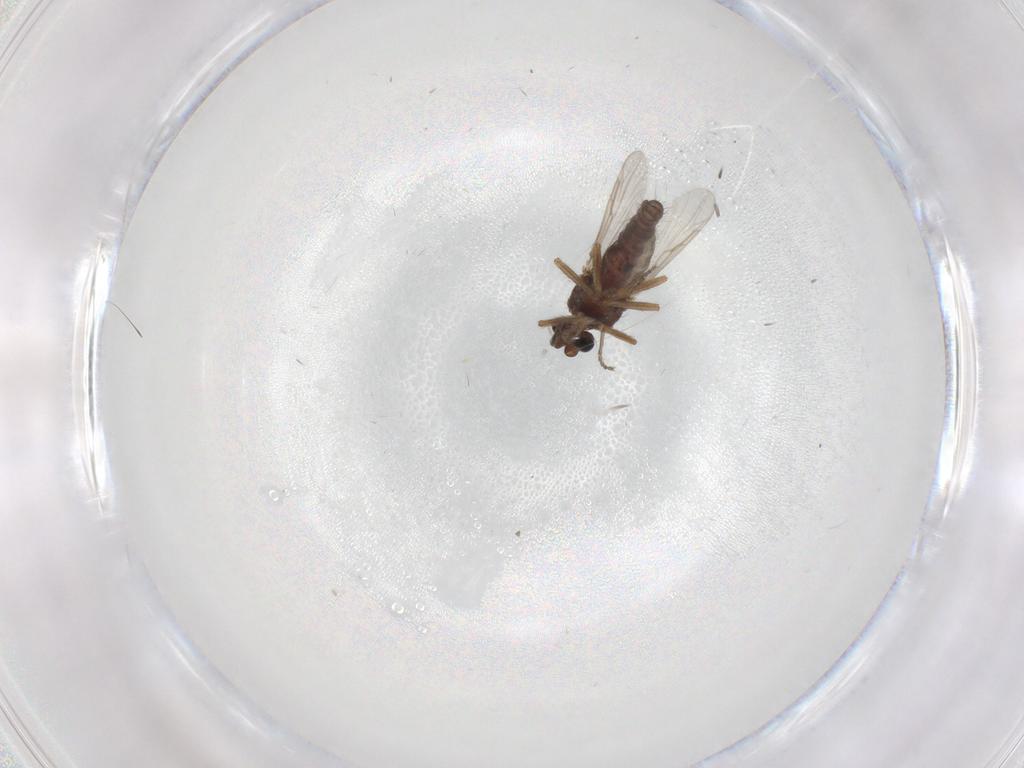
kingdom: Animalia
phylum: Arthropoda
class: Insecta
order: Diptera
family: Ceratopogonidae
